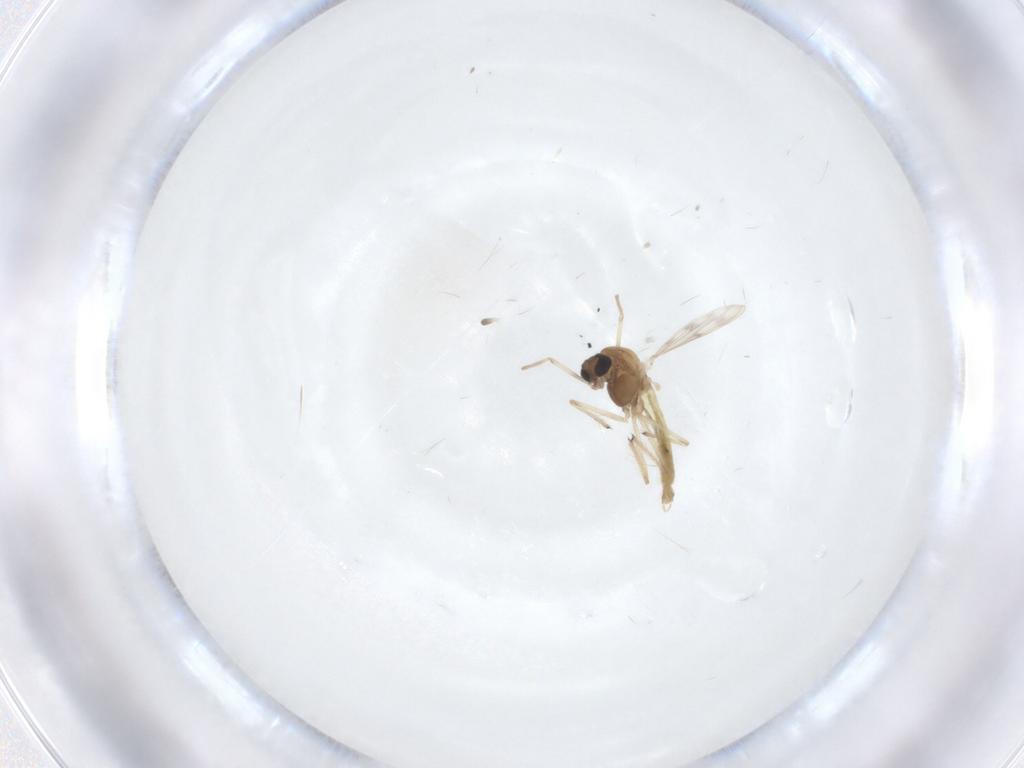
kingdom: Animalia
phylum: Arthropoda
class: Insecta
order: Diptera
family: Chironomidae
